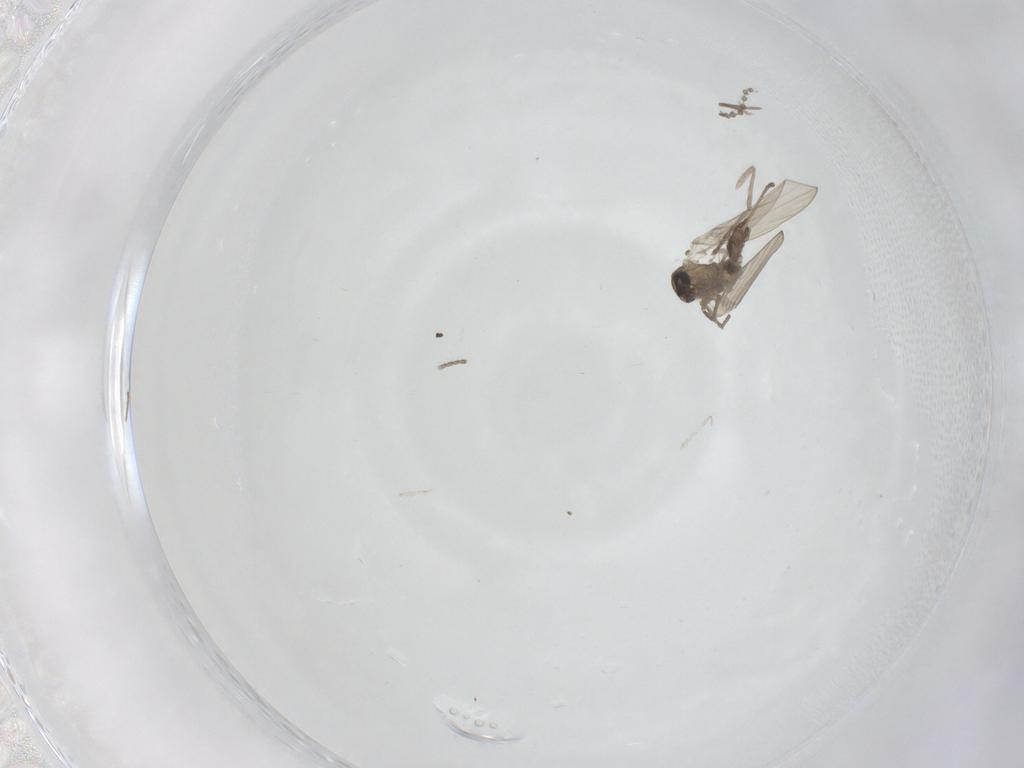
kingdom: Animalia
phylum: Arthropoda
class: Insecta
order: Diptera
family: Psychodidae
